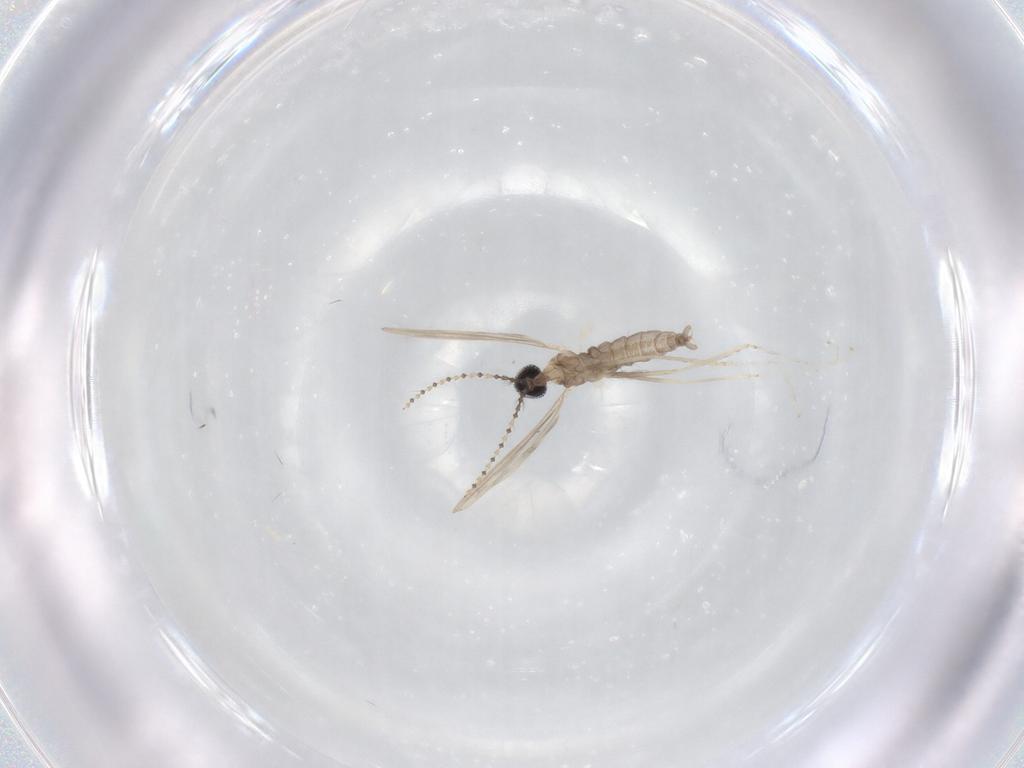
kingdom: Animalia
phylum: Arthropoda
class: Insecta
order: Diptera
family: Cecidomyiidae
